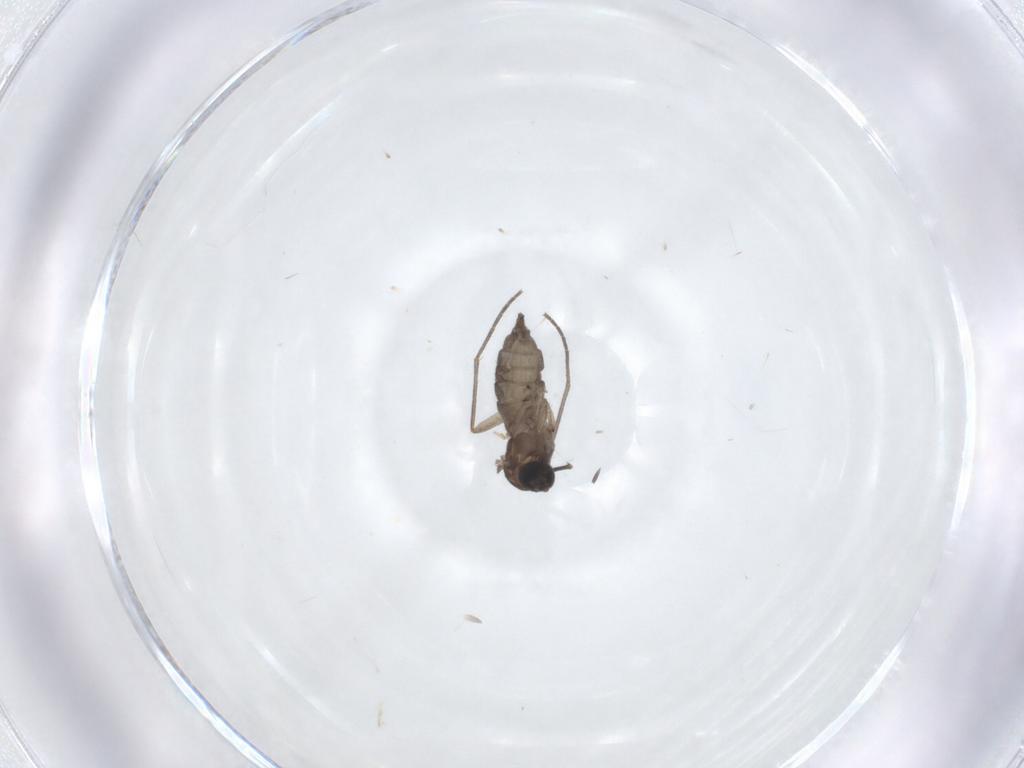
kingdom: Animalia
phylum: Arthropoda
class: Insecta
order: Diptera
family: Sciaridae
